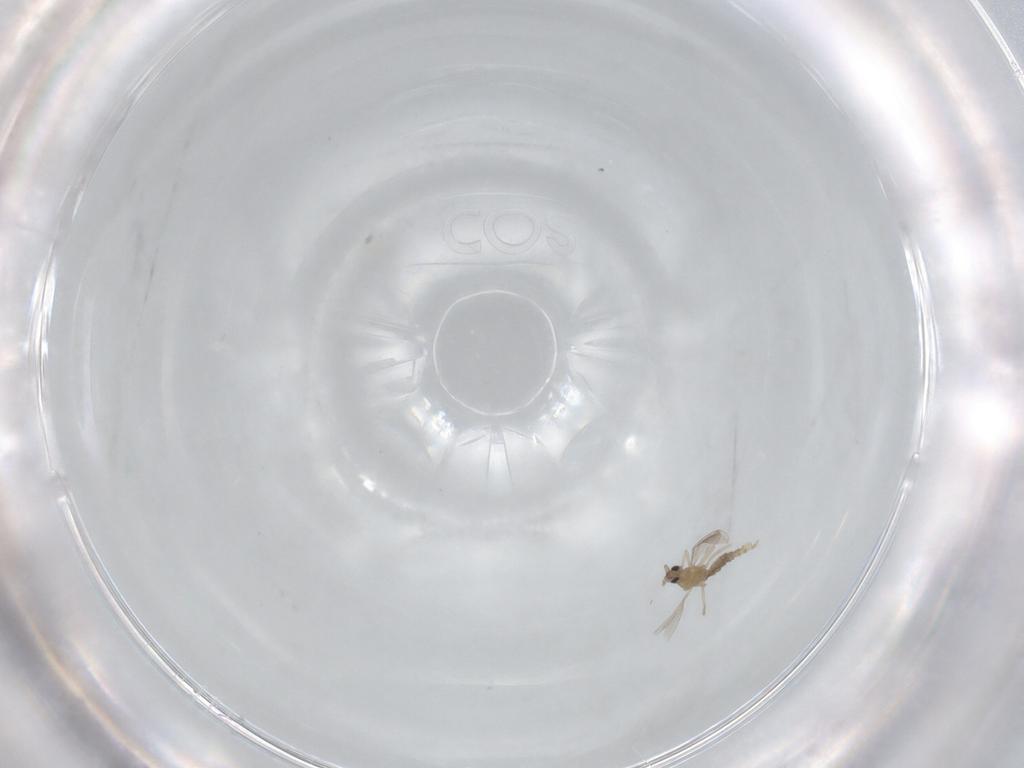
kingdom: Animalia
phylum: Arthropoda
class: Insecta
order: Diptera
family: Cecidomyiidae
